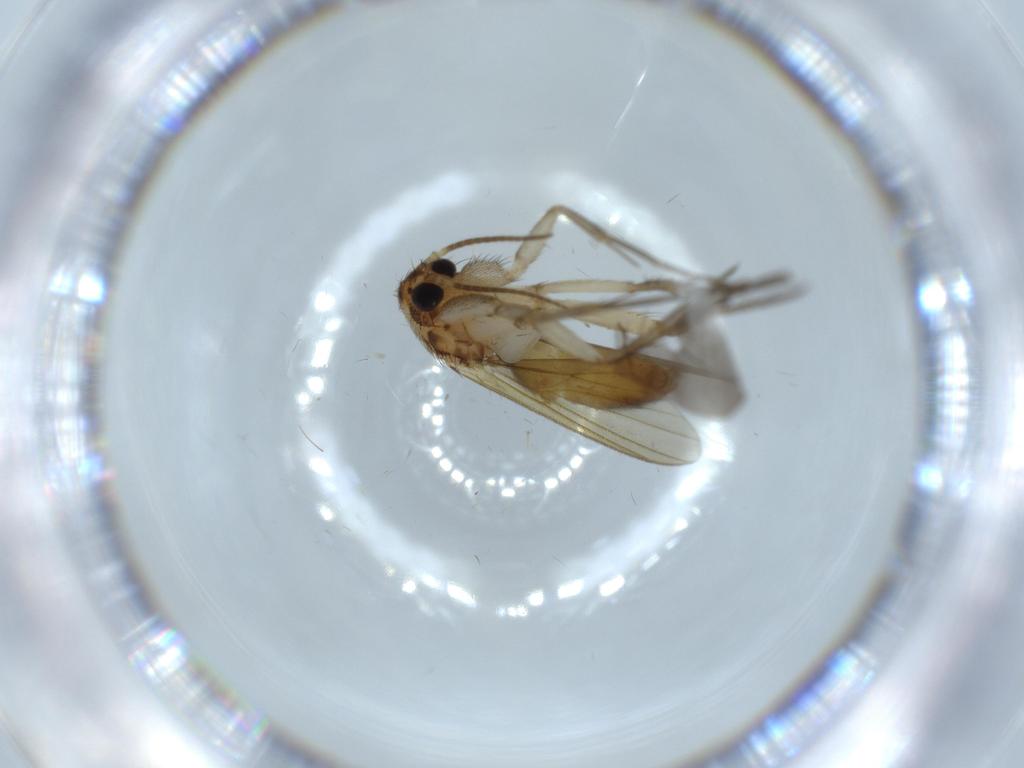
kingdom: Animalia
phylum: Arthropoda
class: Insecta
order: Diptera
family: Mycetophilidae
